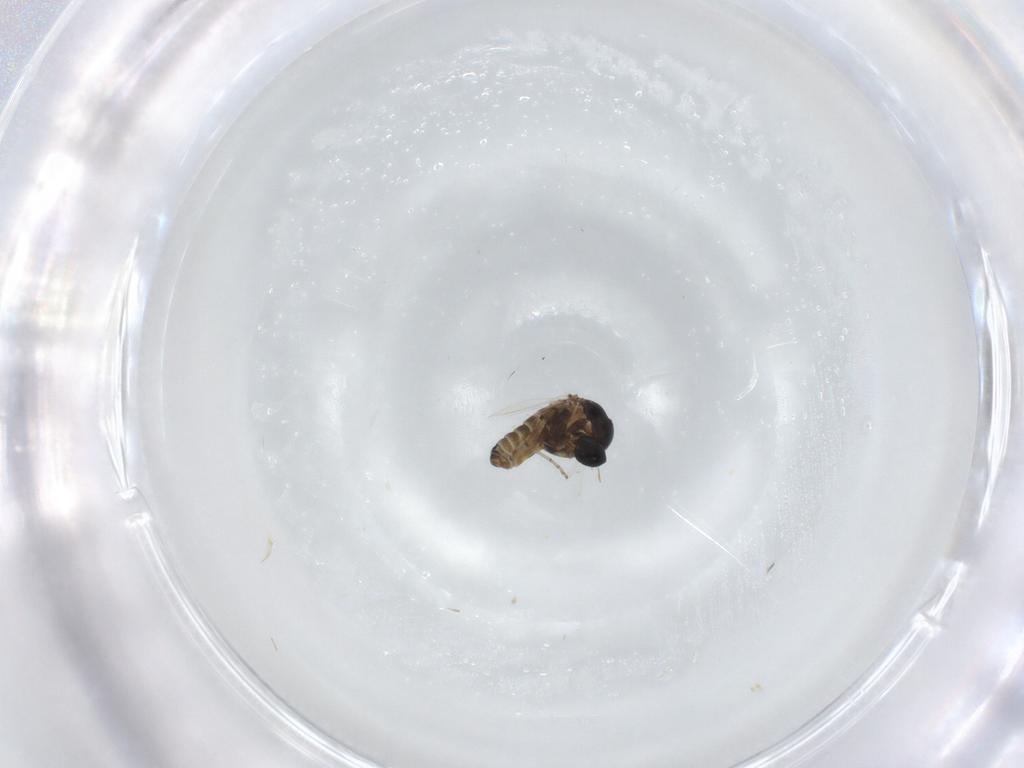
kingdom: Animalia
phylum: Arthropoda
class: Insecta
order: Diptera
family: Ceratopogonidae
